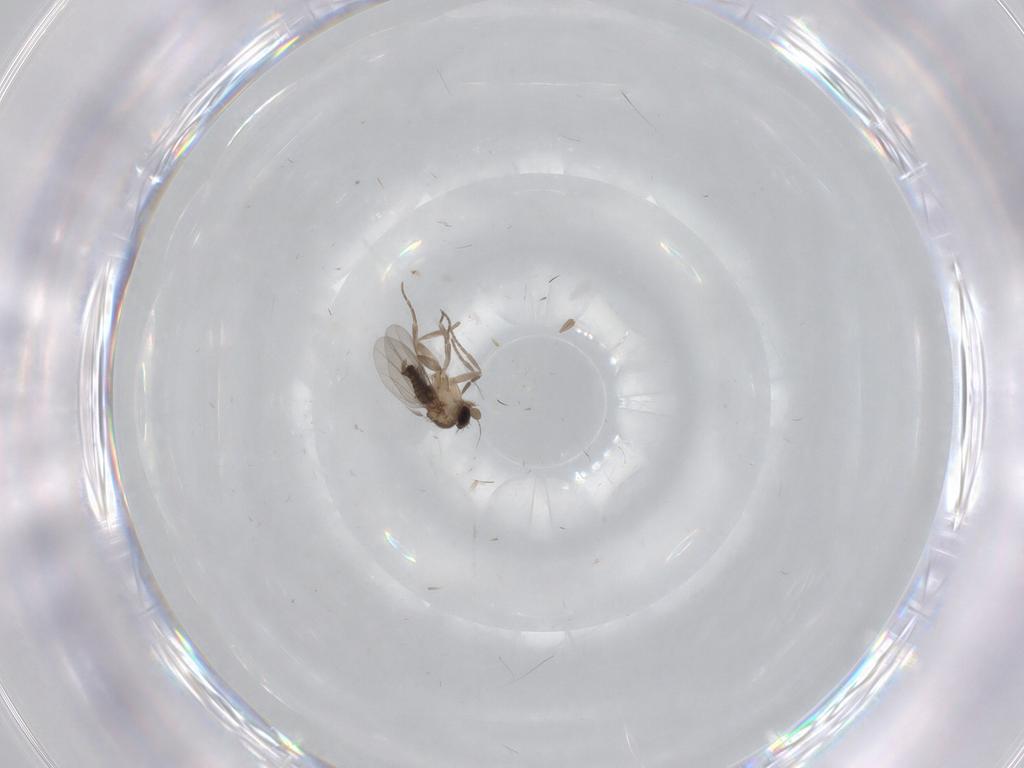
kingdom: Animalia
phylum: Arthropoda
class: Insecta
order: Diptera
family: Sciaridae
